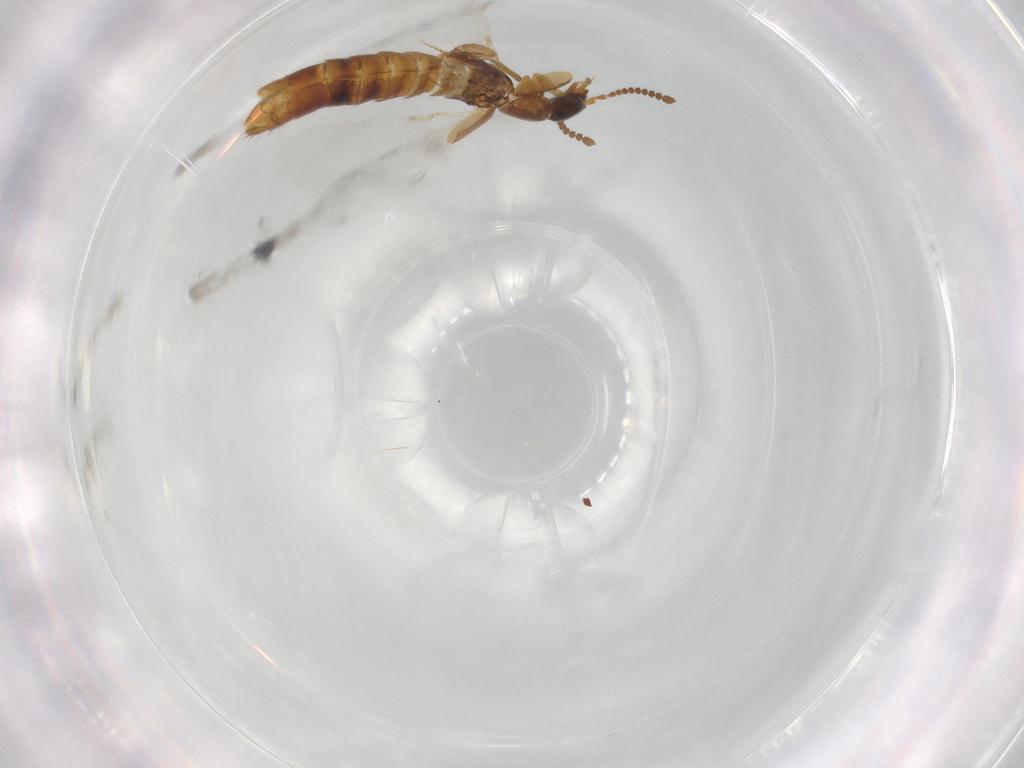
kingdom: Animalia
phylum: Arthropoda
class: Insecta
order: Coleoptera
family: Staphylinidae
